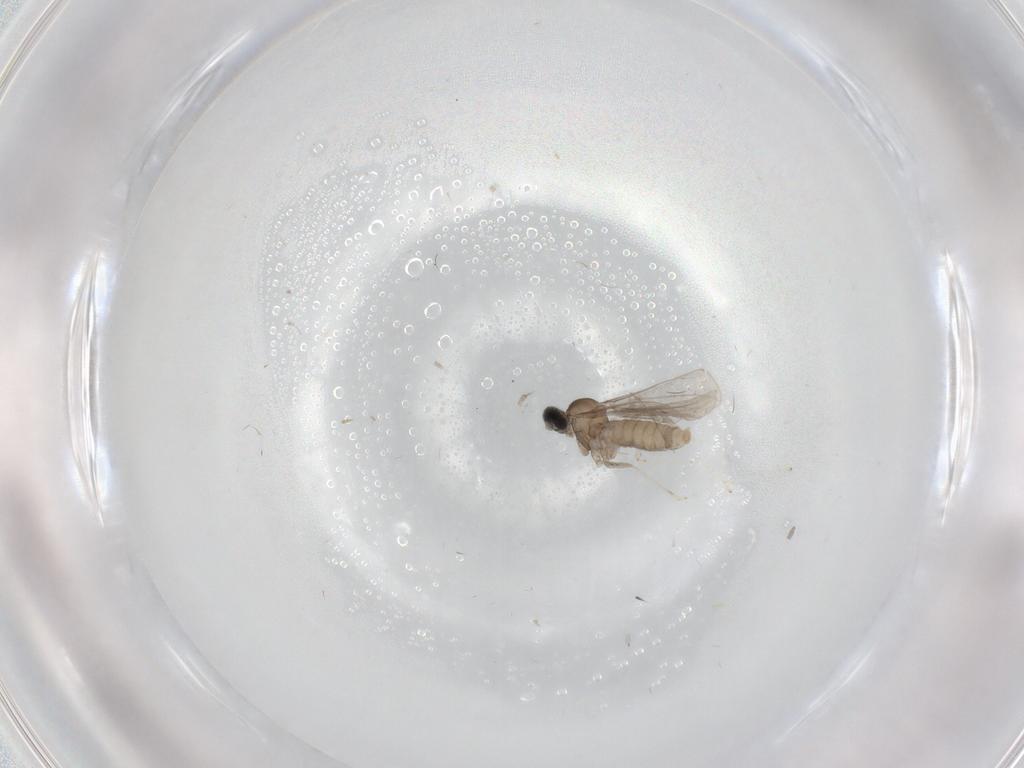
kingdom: Animalia
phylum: Arthropoda
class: Insecta
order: Diptera
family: Cecidomyiidae
